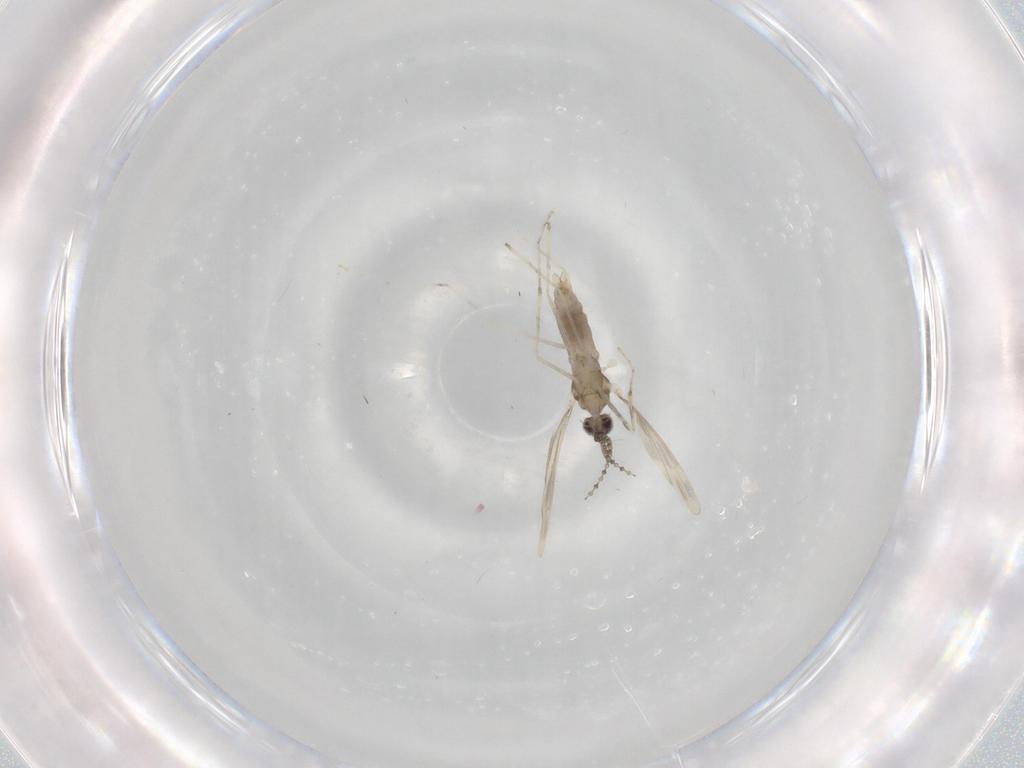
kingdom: Animalia
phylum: Arthropoda
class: Insecta
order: Diptera
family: Cecidomyiidae
